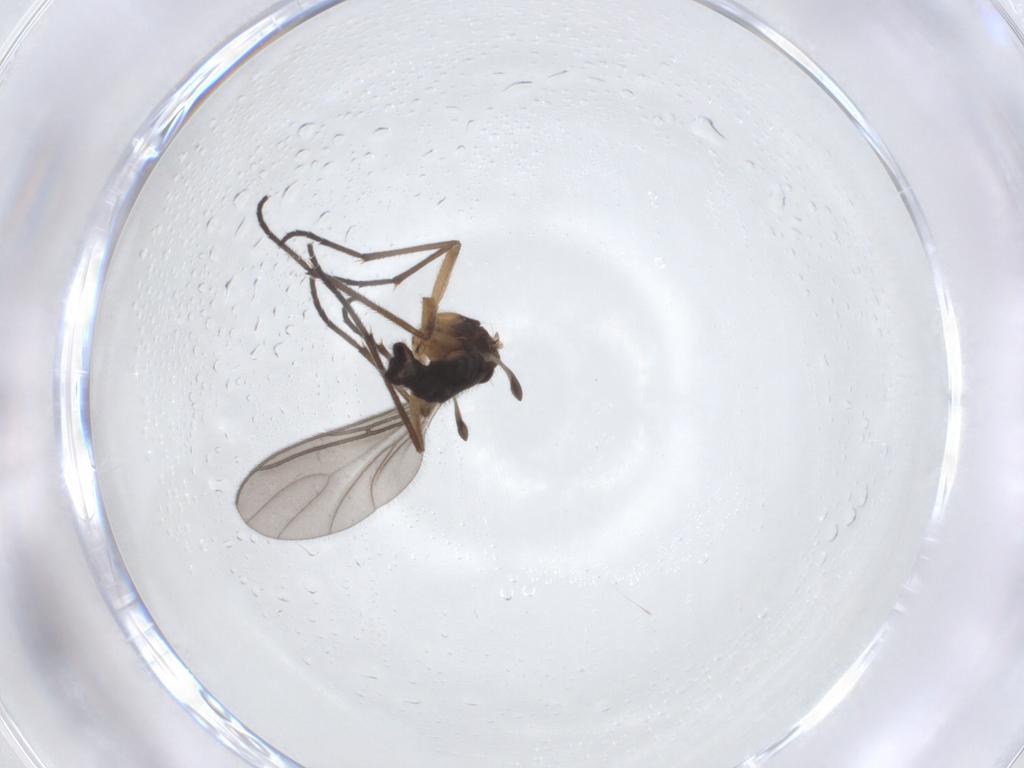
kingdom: Animalia
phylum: Arthropoda
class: Insecta
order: Diptera
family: Sciaridae
